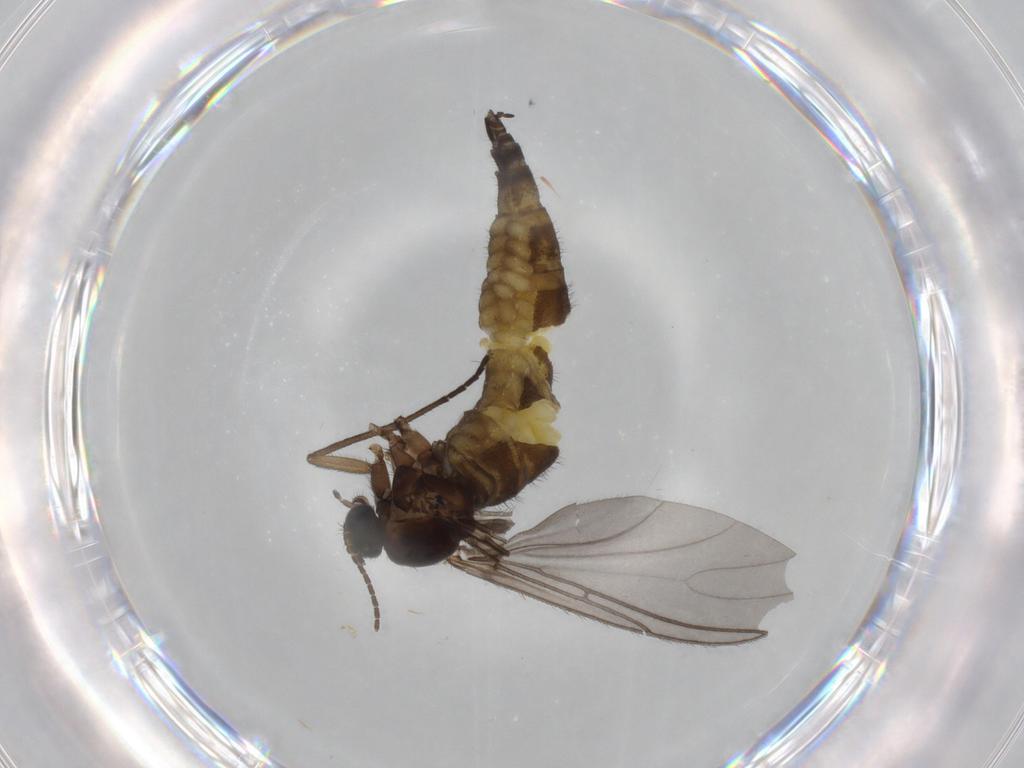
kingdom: Animalia
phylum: Arthropoda
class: Insecta
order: Diptera
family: Sciaridae
